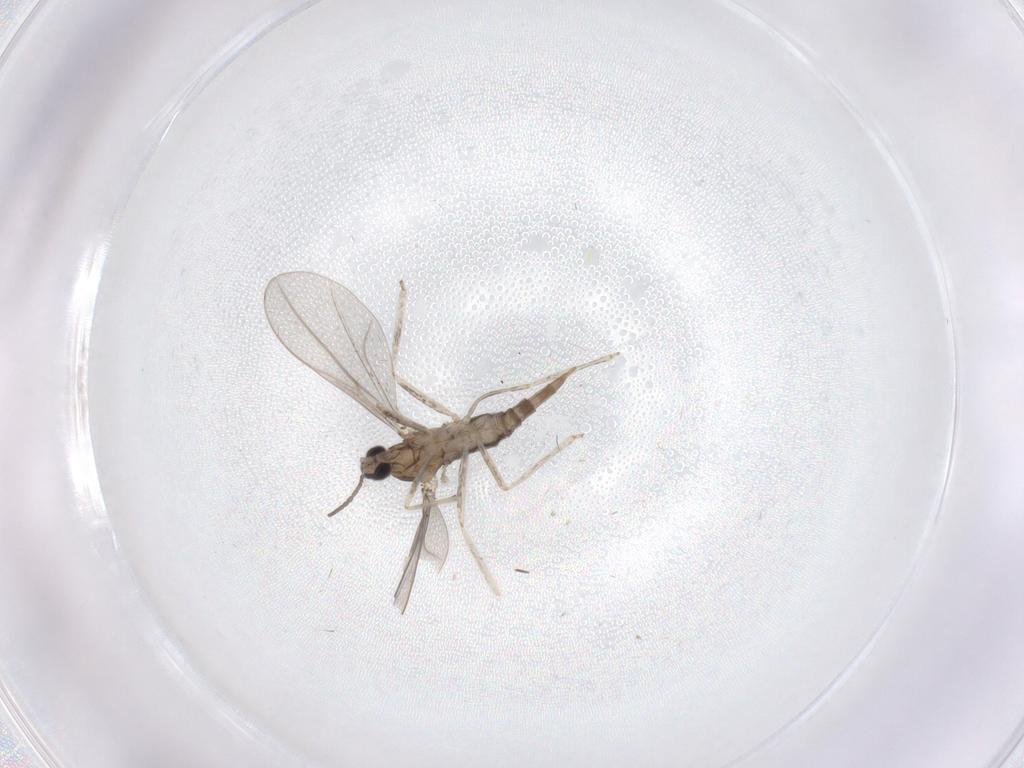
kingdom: Animalia
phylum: Arthropoda
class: Insecta
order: Diptera
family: Cecidomyiidae
